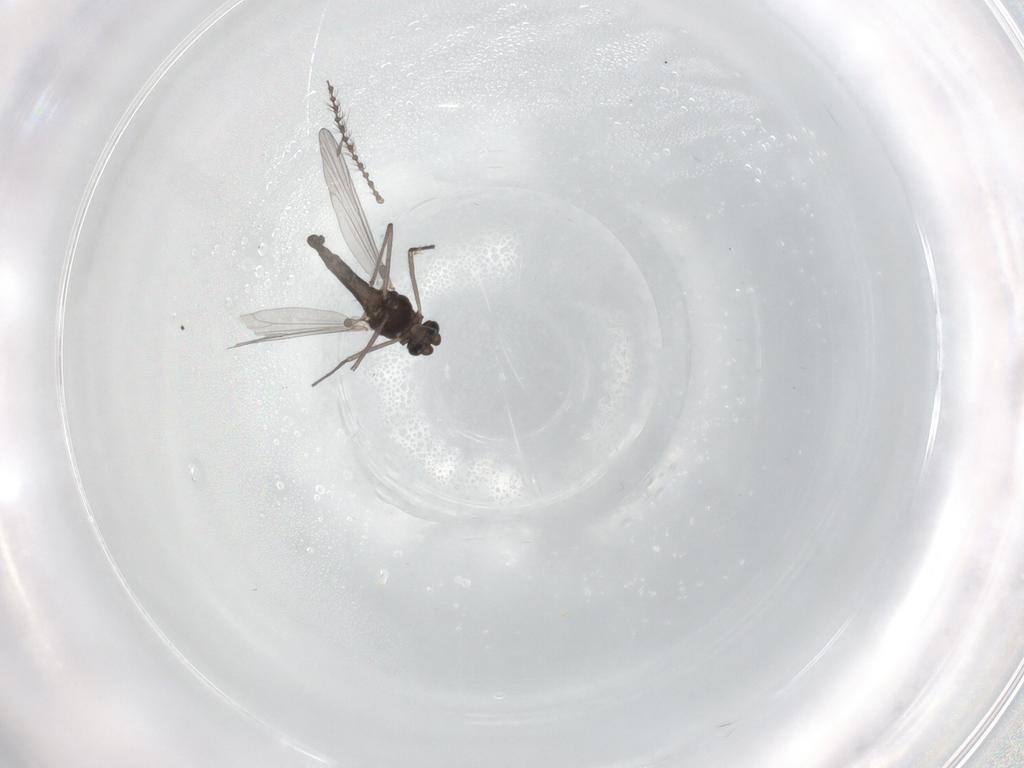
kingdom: Animalia
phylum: Arthropoda
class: Insecta
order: Diptera
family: Chironomidae
